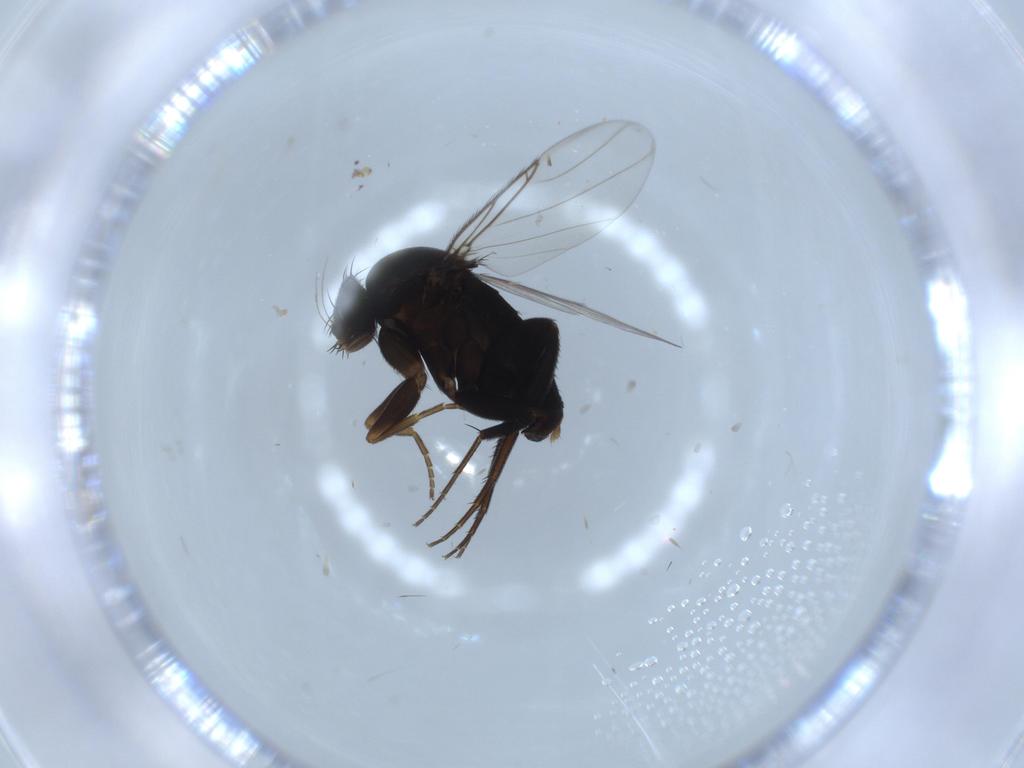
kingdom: Animalia
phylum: Arthropoda
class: Insecta
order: Diptera
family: Phoridae
